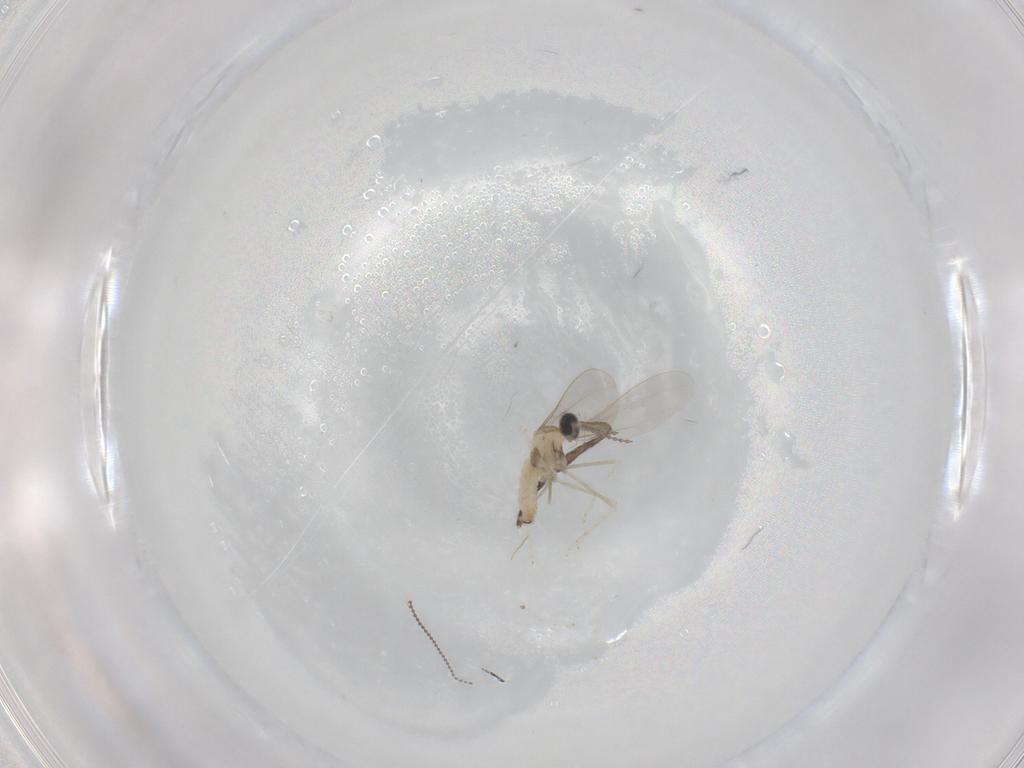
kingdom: Animalia
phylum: Arthropoda
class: Insecta
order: Diptera
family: Cecidomyiidae
